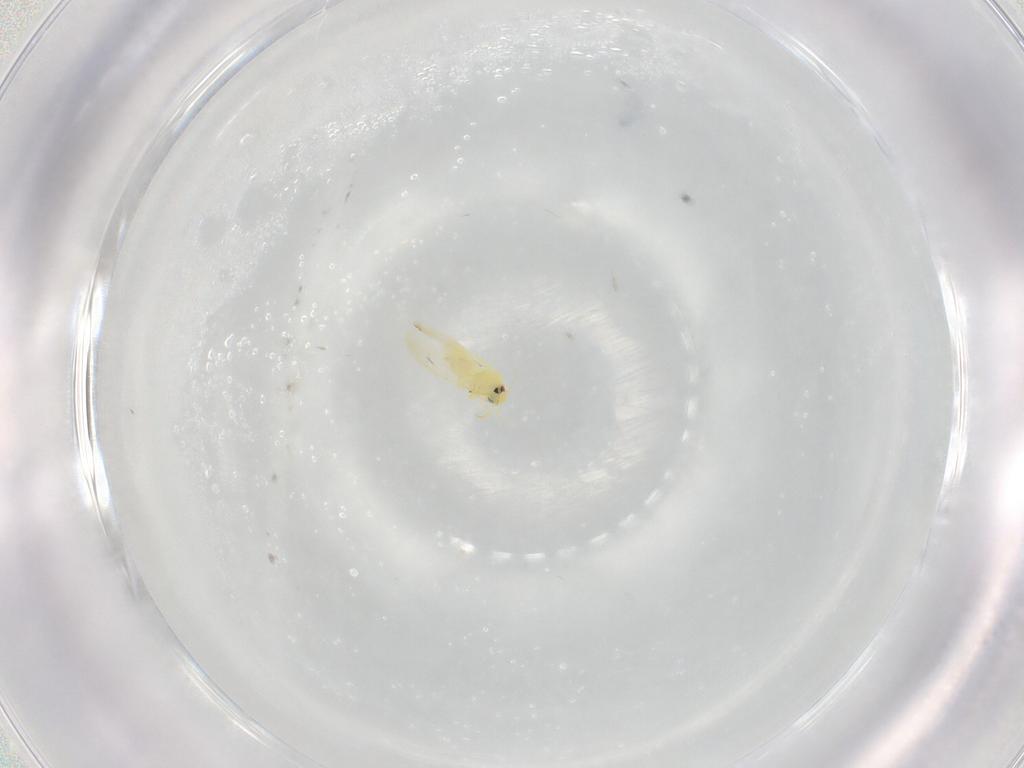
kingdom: Animalia
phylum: Arthropoda
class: Insecta
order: Hemiptera
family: Aleyrodidae
